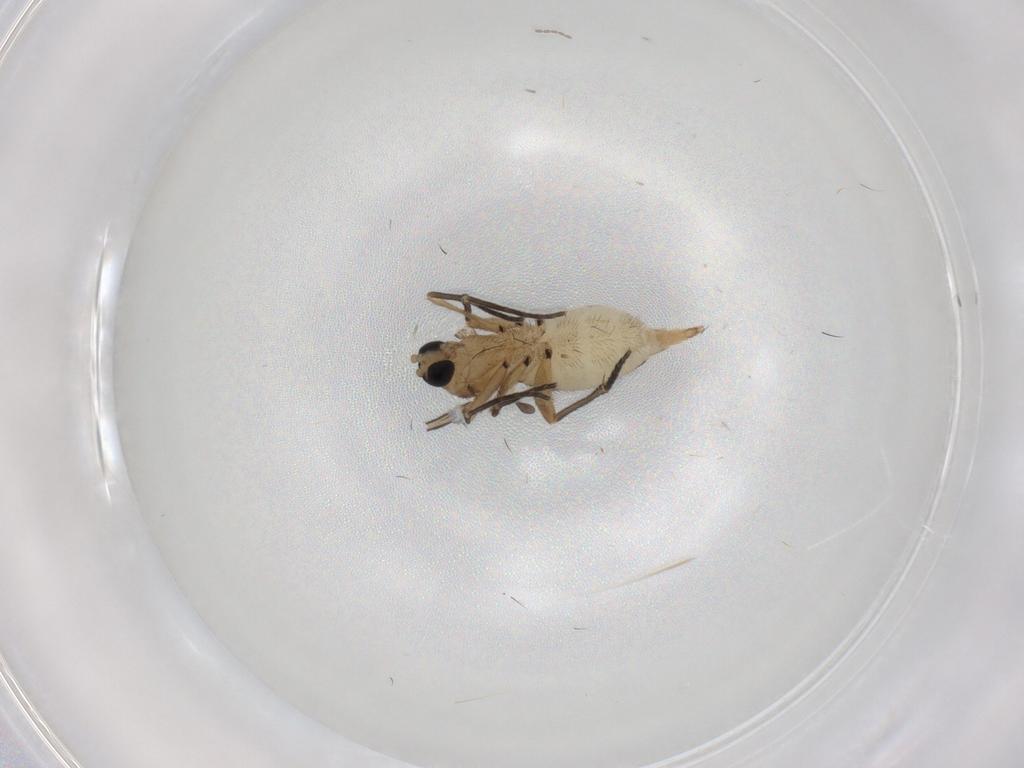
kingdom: Animalia
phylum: Arthropoda
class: Insecta
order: Diptera
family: Sciaridae
